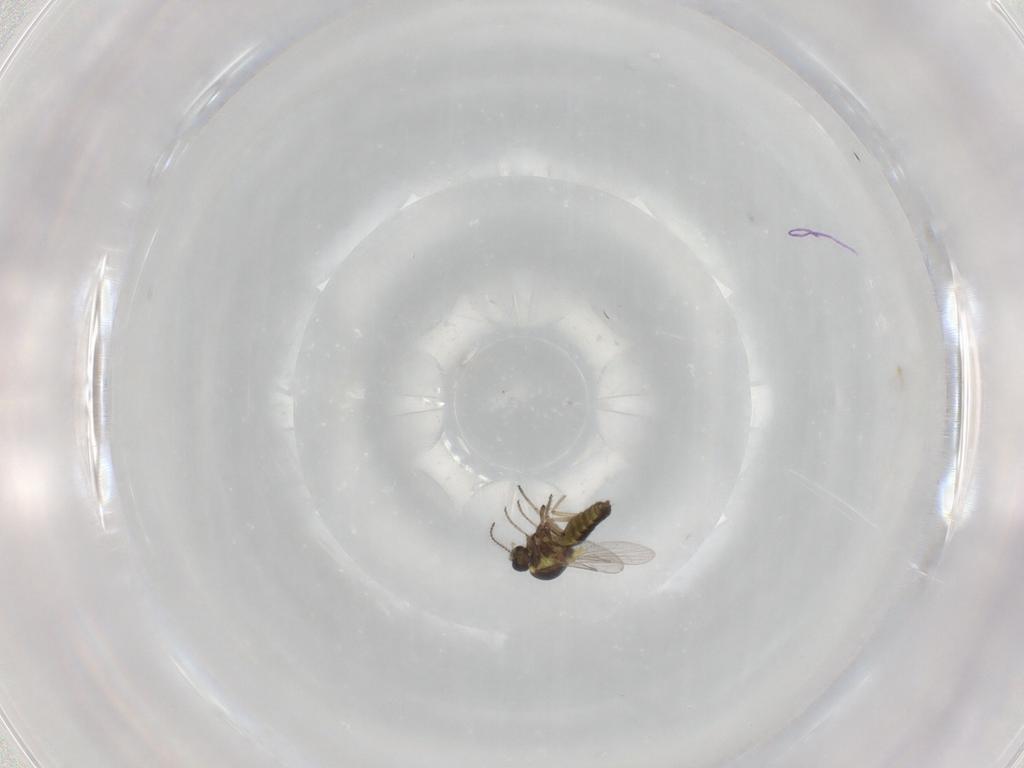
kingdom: Animalia
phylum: Arthropoda
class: Insecta
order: Diptera
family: Ceratopogonidae
